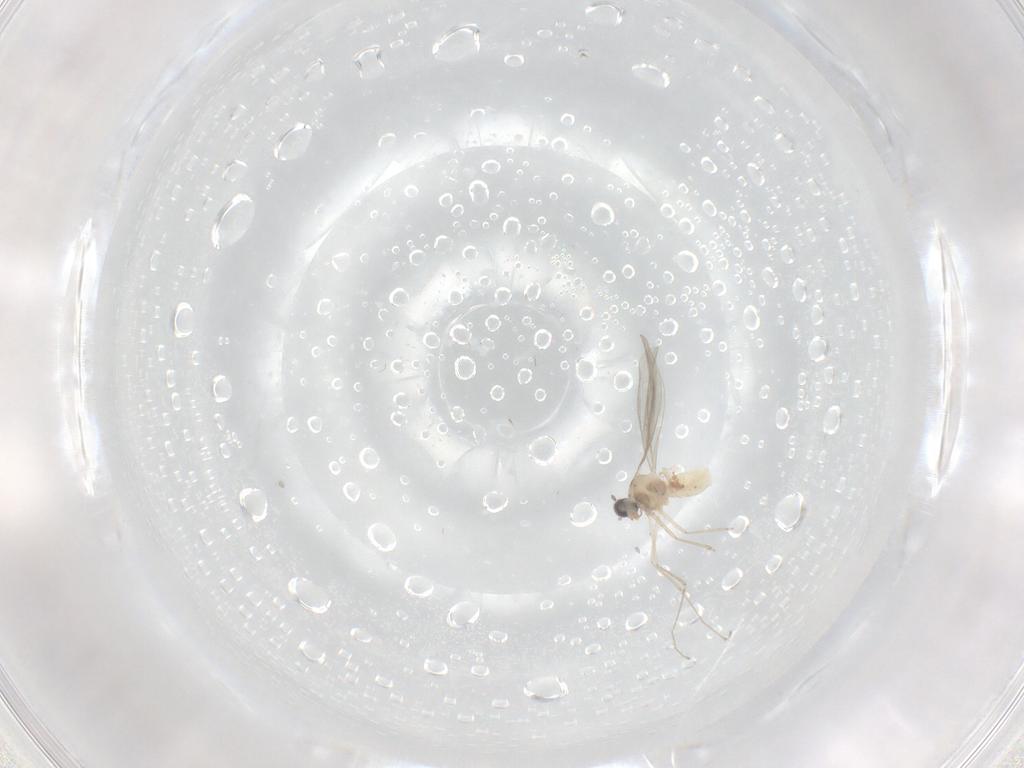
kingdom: Animalia
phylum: Arthropoda
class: Insecta
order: Diptera
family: Cecidomyiidae
